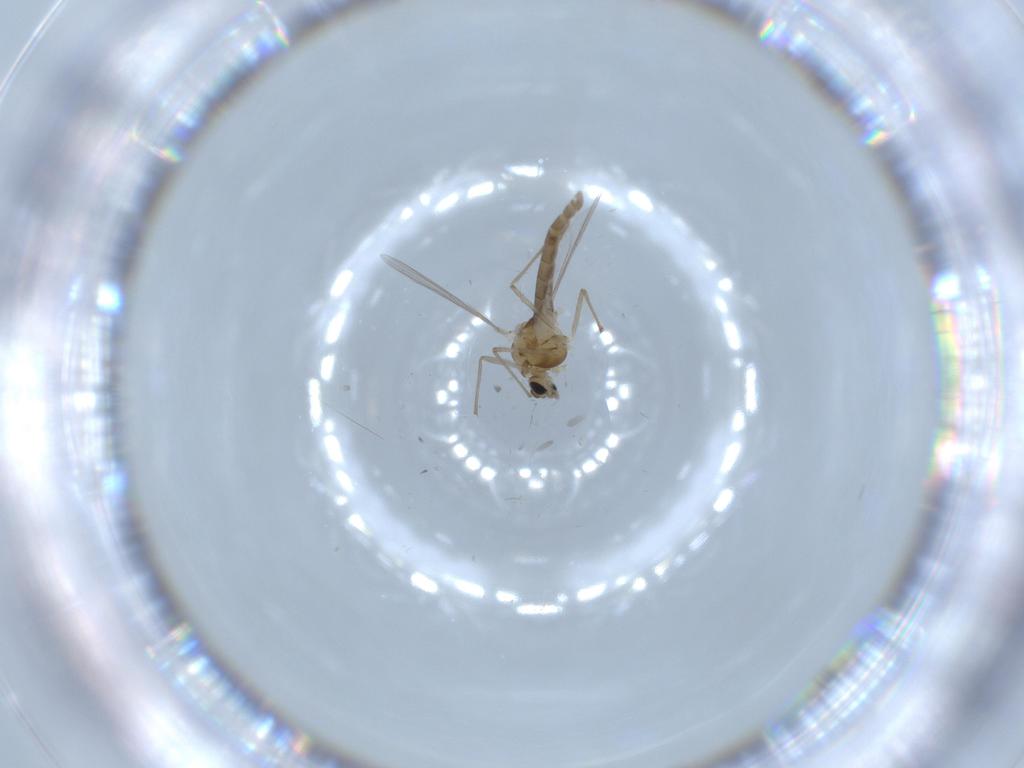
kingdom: Animalia
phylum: Arthropoda
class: Insecta
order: Diptera
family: Chironomidae
